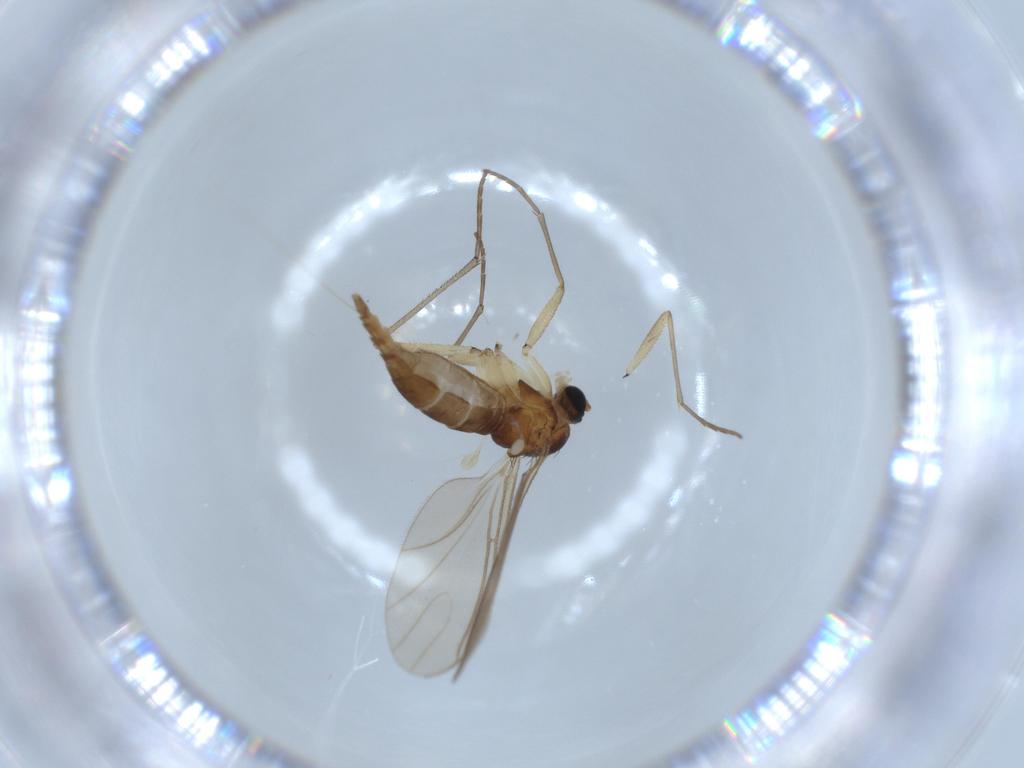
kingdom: Animalia
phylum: Arthropoda
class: Insecta
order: Diptera
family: Sciaridae
